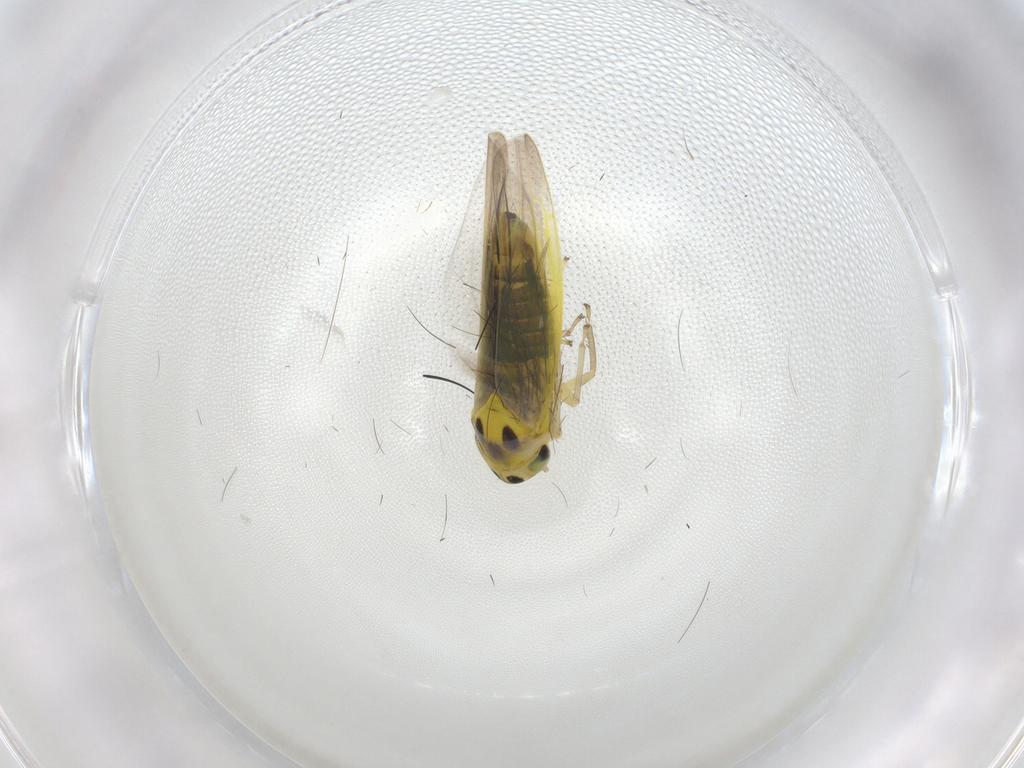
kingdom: Animalia
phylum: Arthropoda
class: Insecta
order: Hemiptera
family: Cicadellidae
